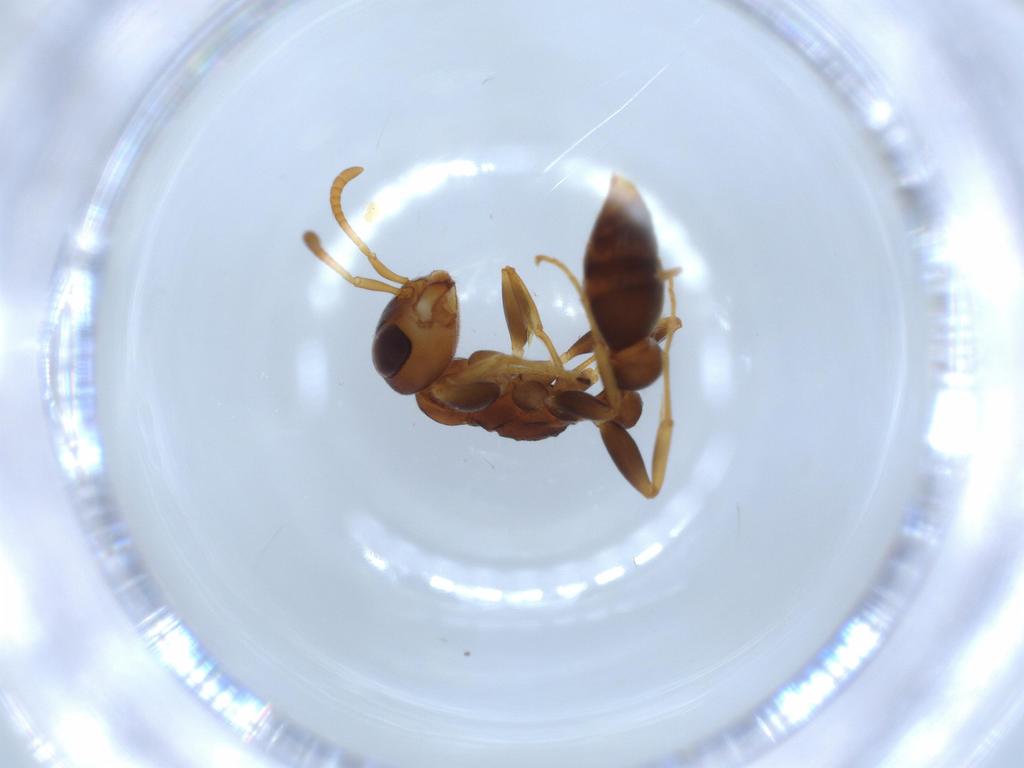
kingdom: Animalia
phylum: Arthropoda
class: Insecta
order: Hymenoptera
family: Formicidae
